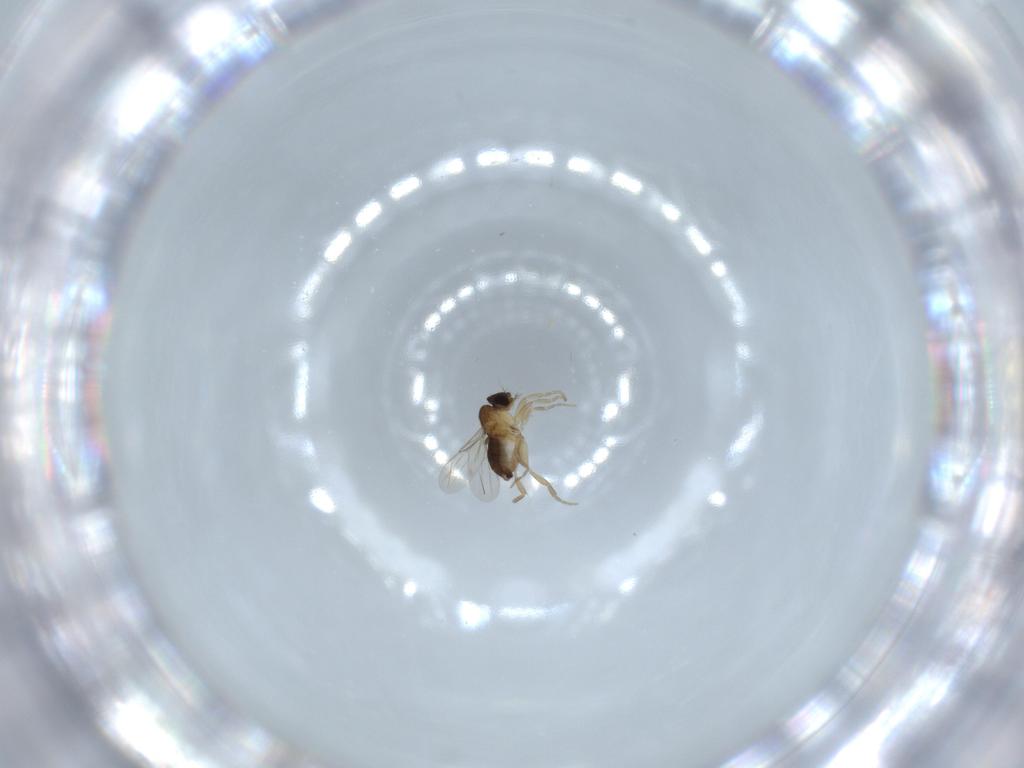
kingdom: Animalia
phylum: Arthropoda
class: Insecta
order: Diptera
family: Phoridae
